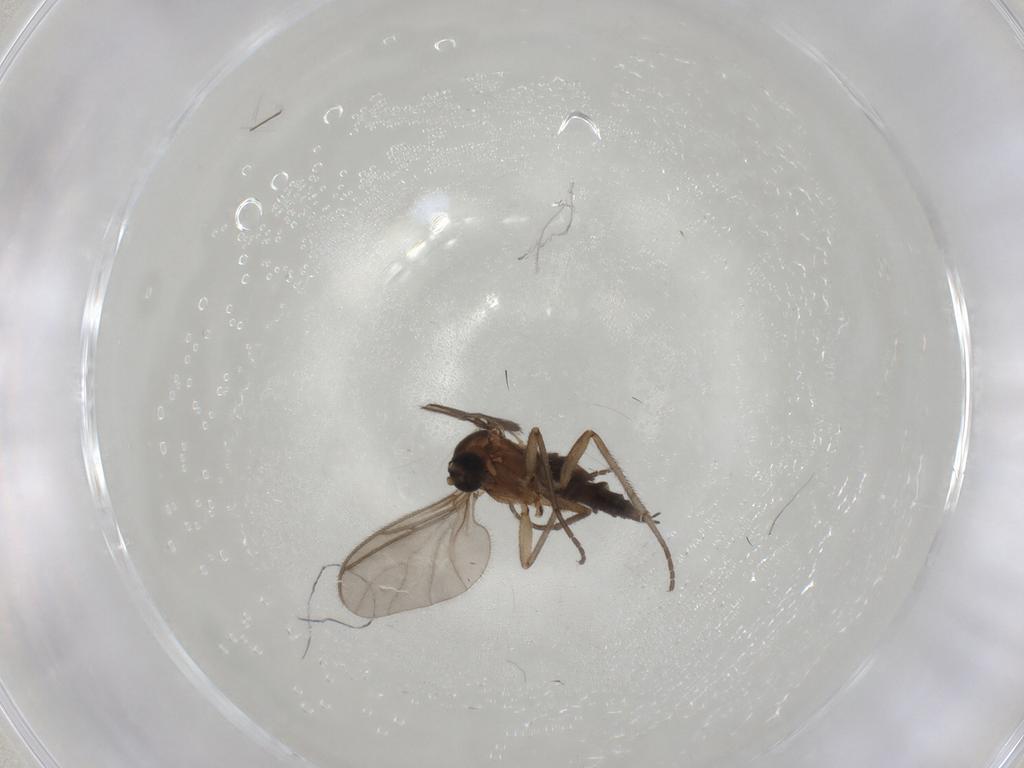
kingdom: Animalia
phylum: Arthropoda
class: Insecta
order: Diptera
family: Sciaridae
